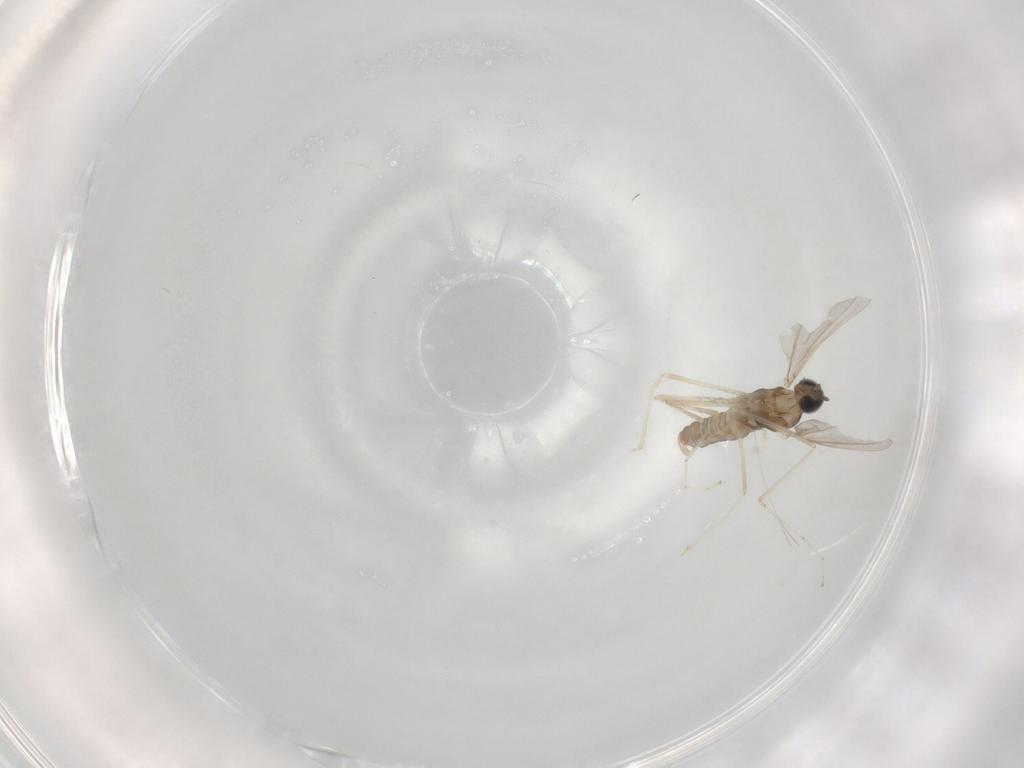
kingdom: Animalia
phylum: Arthropoda
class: Insecta
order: Diptera
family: Cecidomyiidae
